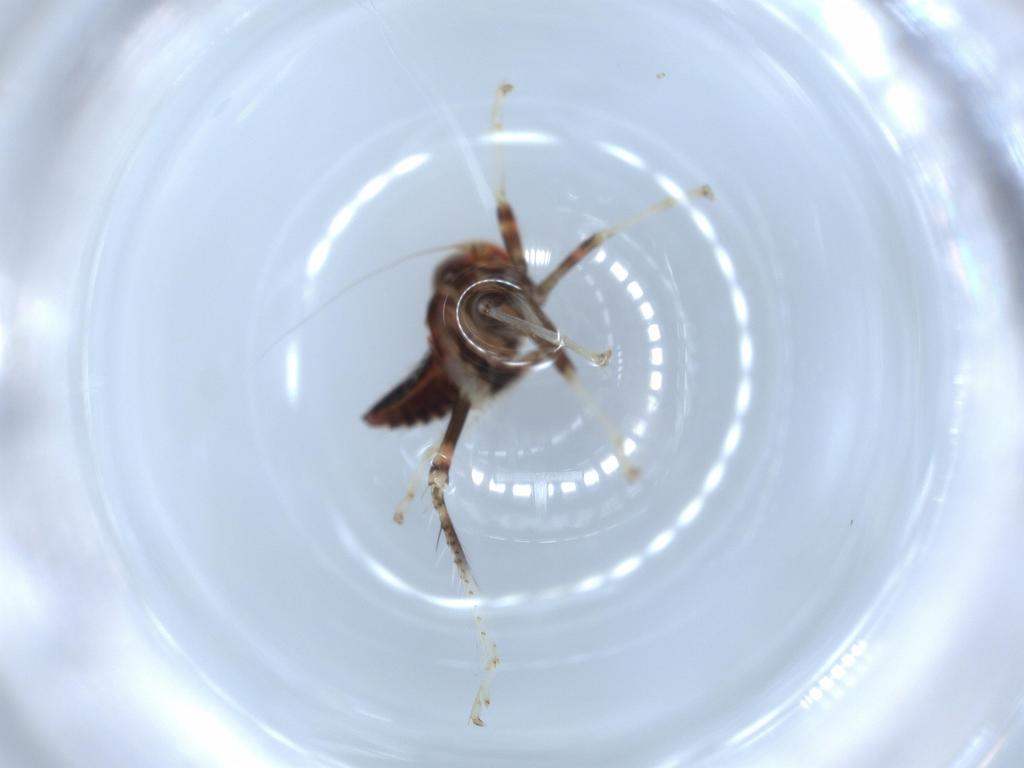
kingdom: Animalia
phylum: Arthropoda
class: Insecta
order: Hemiptera
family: Cicadellidae
